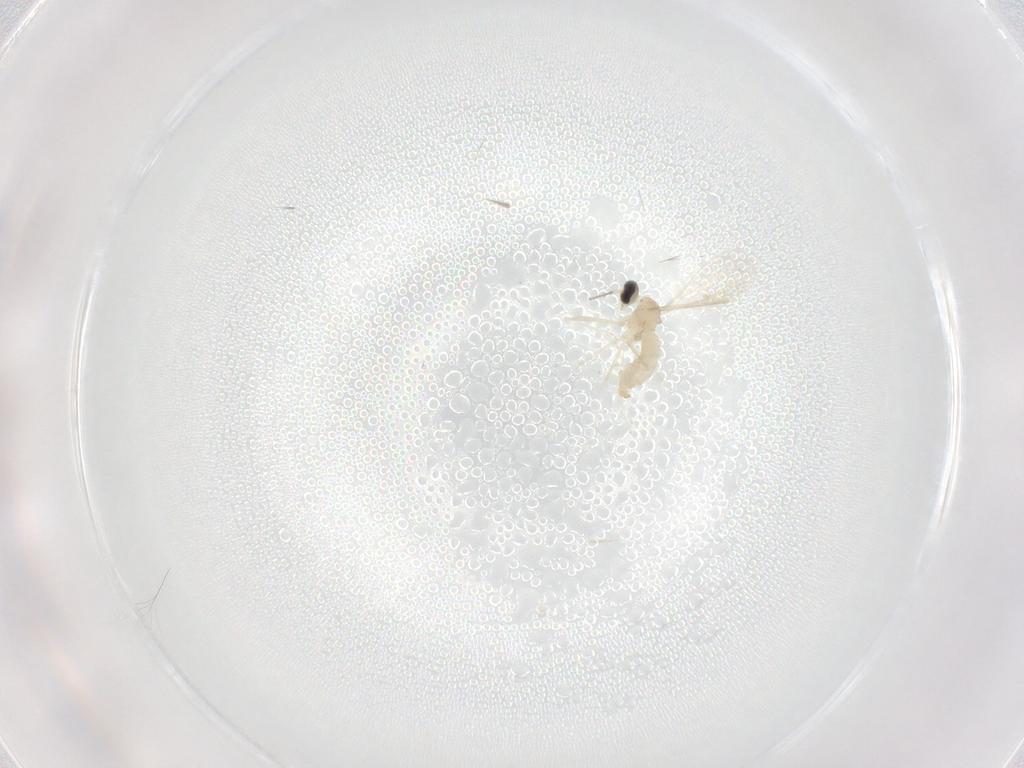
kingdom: Animalia
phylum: Arthropoda
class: Insecta
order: Diptera
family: Cecidomyiidae
